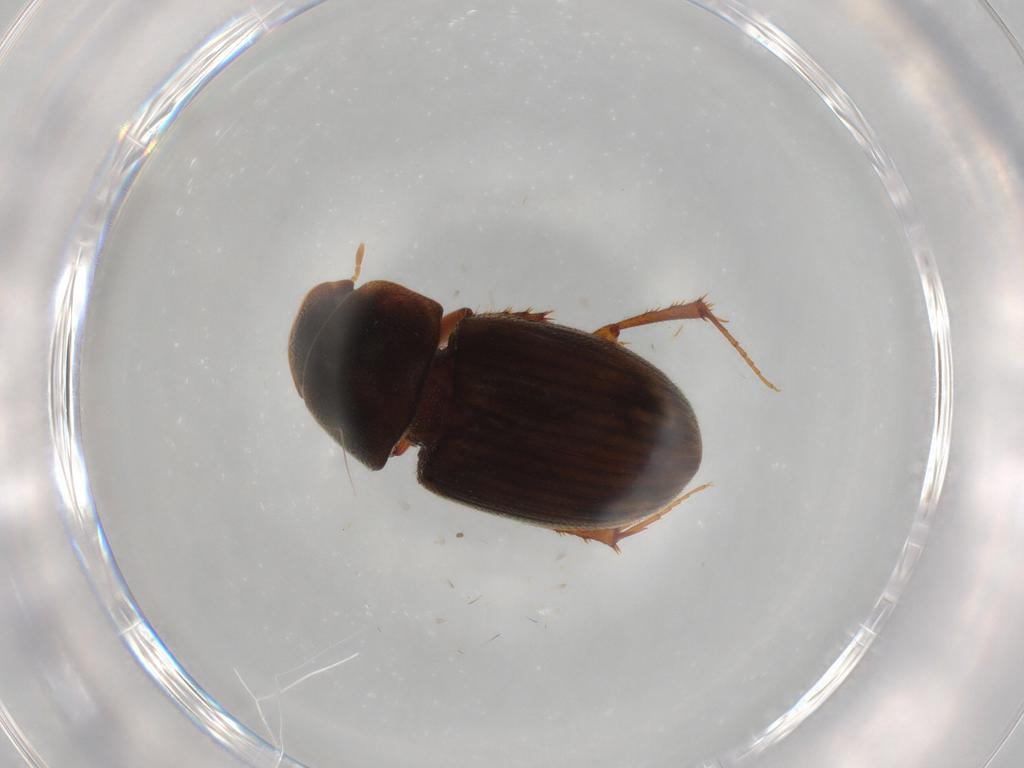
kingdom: Animalia
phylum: Arthropoda
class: Insecta
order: Coleoptera
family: Scarabaeidae
